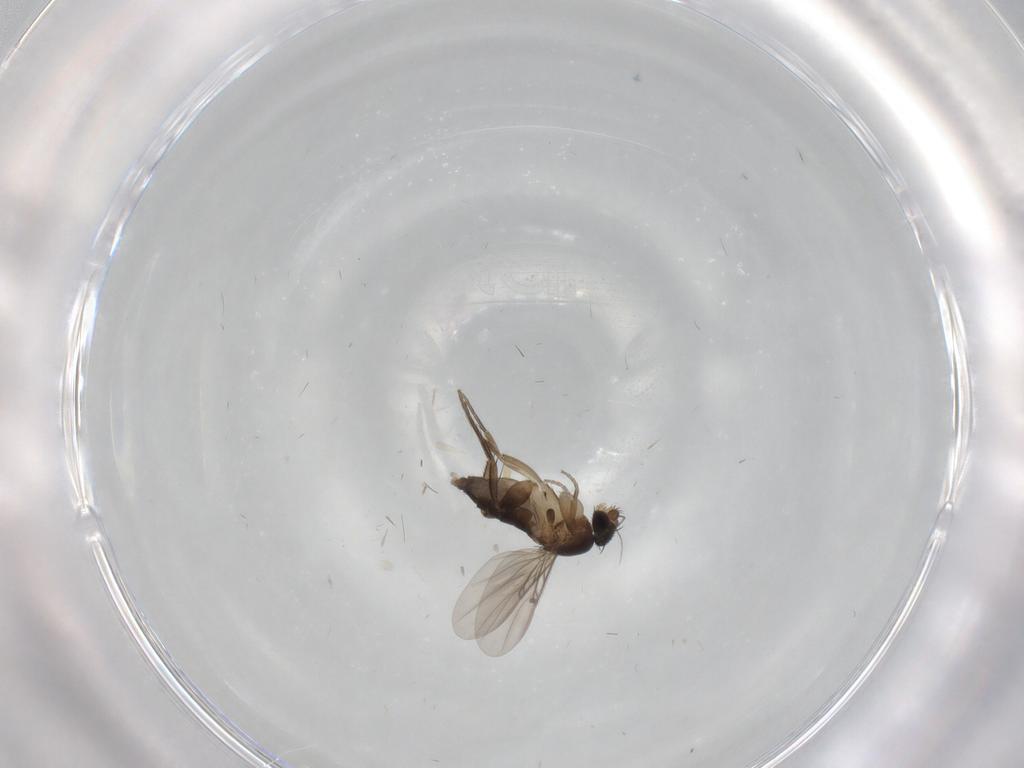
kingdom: Animalia
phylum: Arthropoda
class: Insecta
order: Diptera
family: Phoridae
